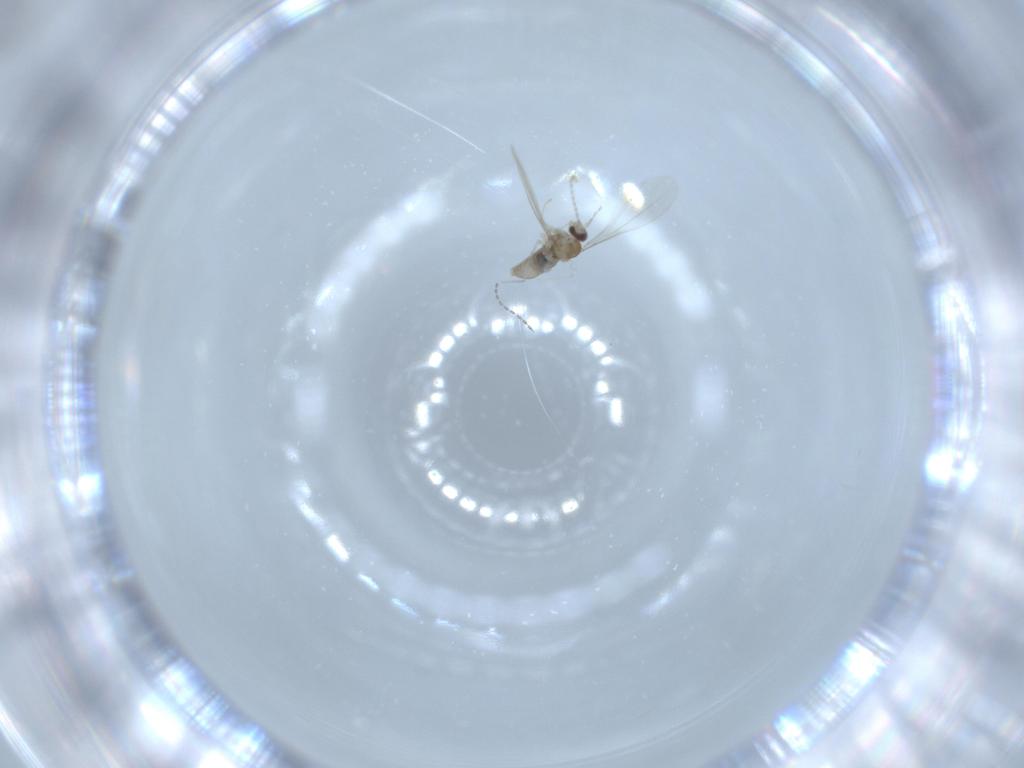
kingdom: Animalia
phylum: Arthropoda
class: Insecta
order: Diptera
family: Cecidomyiidae
